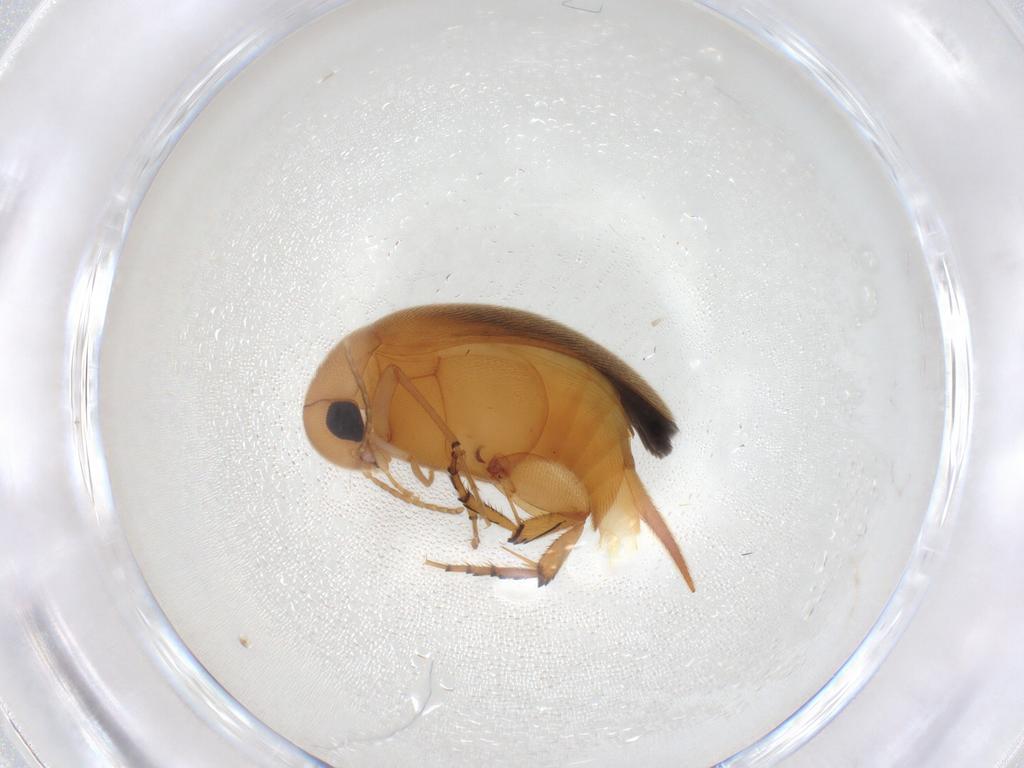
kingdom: Animalia
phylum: Arthropoda
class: Insecta
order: Coleoptera
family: Mordellidae
